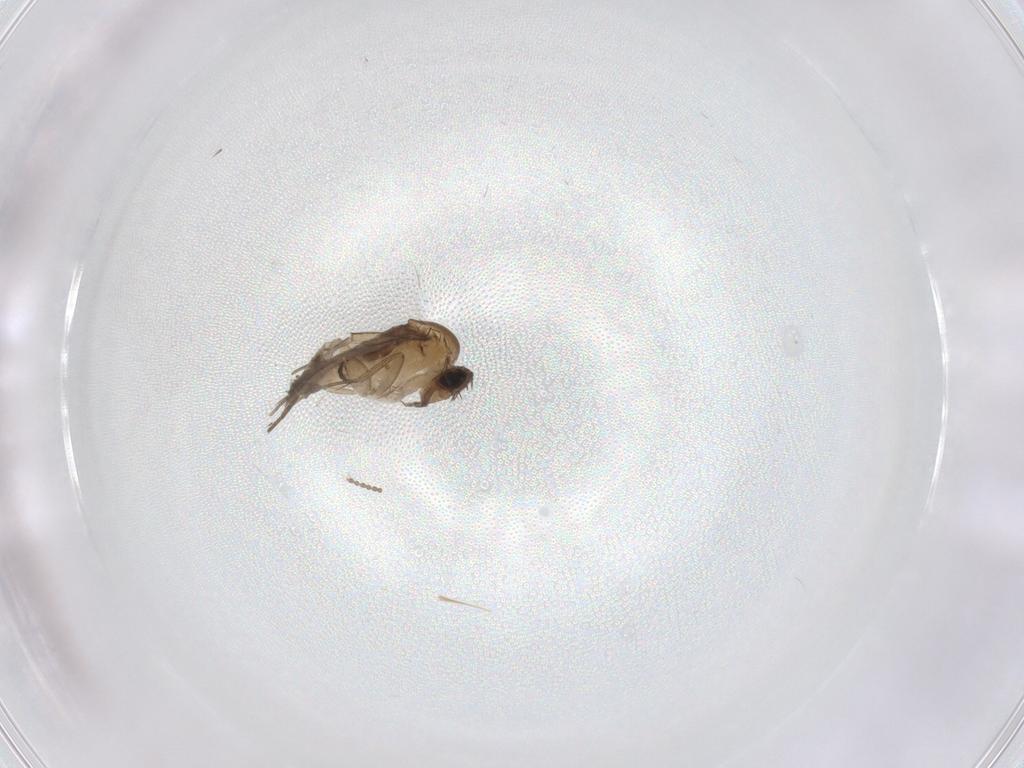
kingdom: Animalia
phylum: Arthropoda
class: Insecta
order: Diptera
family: Phoridae
